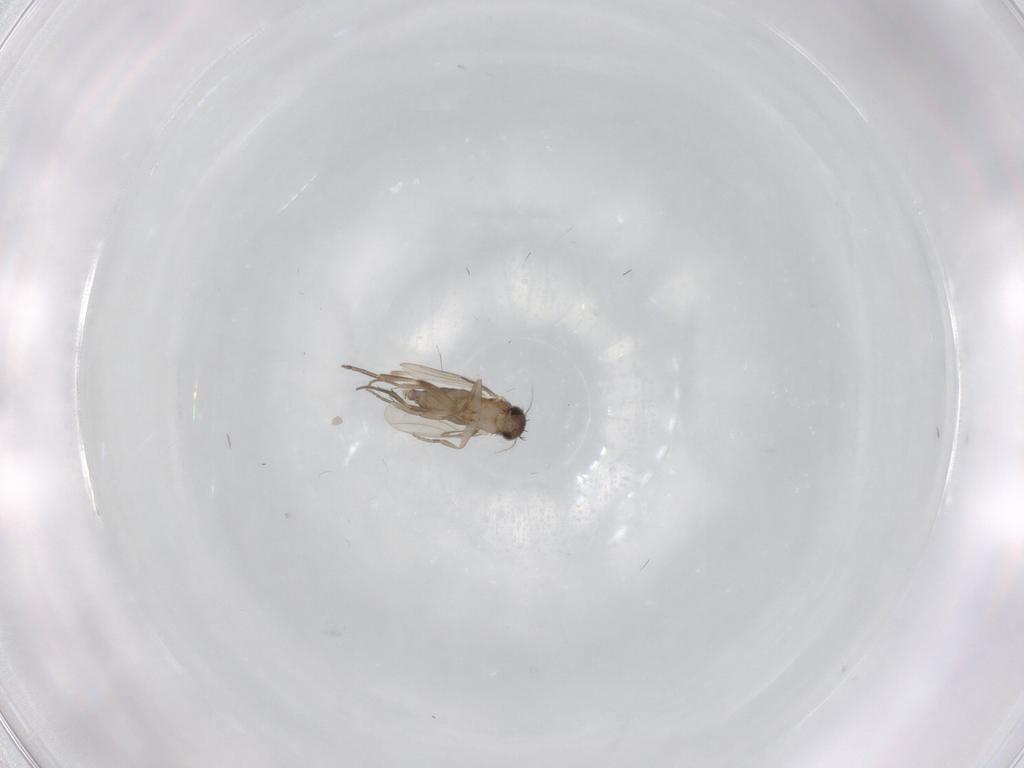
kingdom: Animalia
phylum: Arthropoda
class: Insecta
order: Diptera
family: Phoridae
